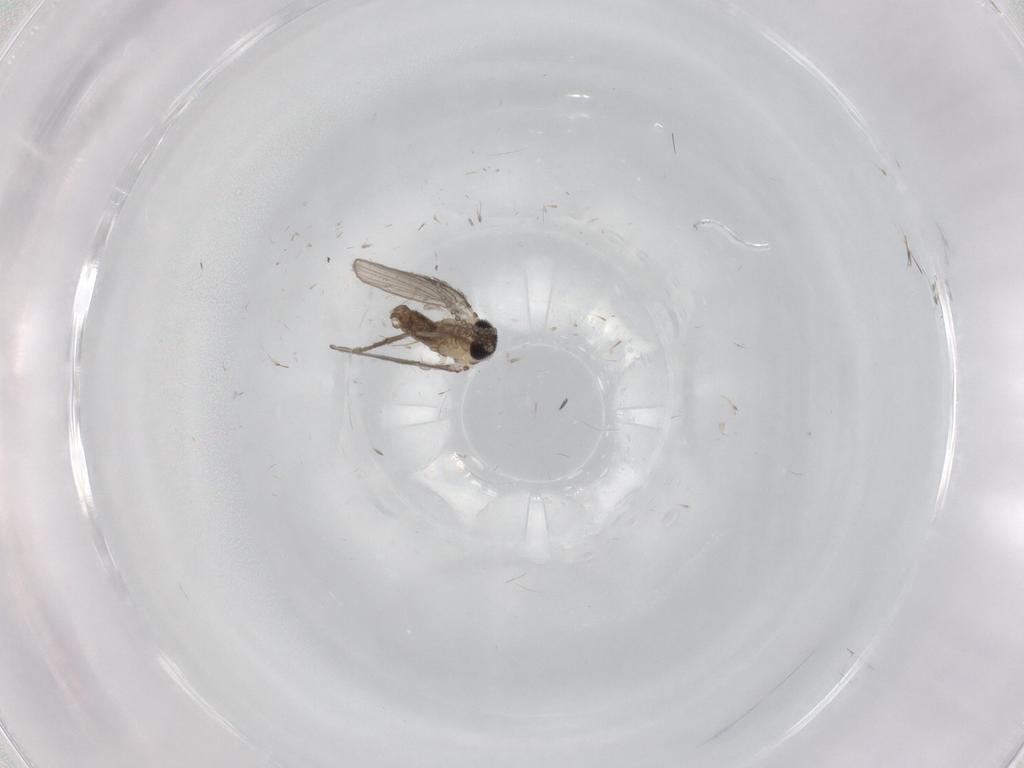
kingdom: Animalia
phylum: Arthropoda
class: Insecta
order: Diptera
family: Psychodidae
